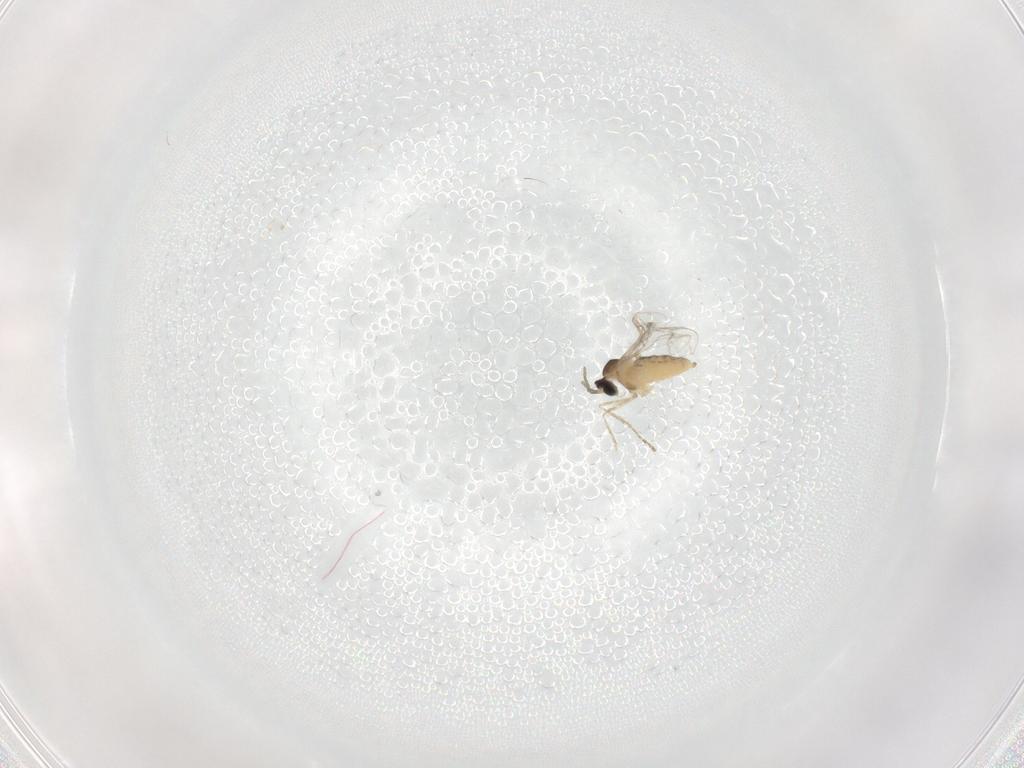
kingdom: Animalia
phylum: Arthropoda
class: Insecta
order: Diptera
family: Cecidomyiidae
